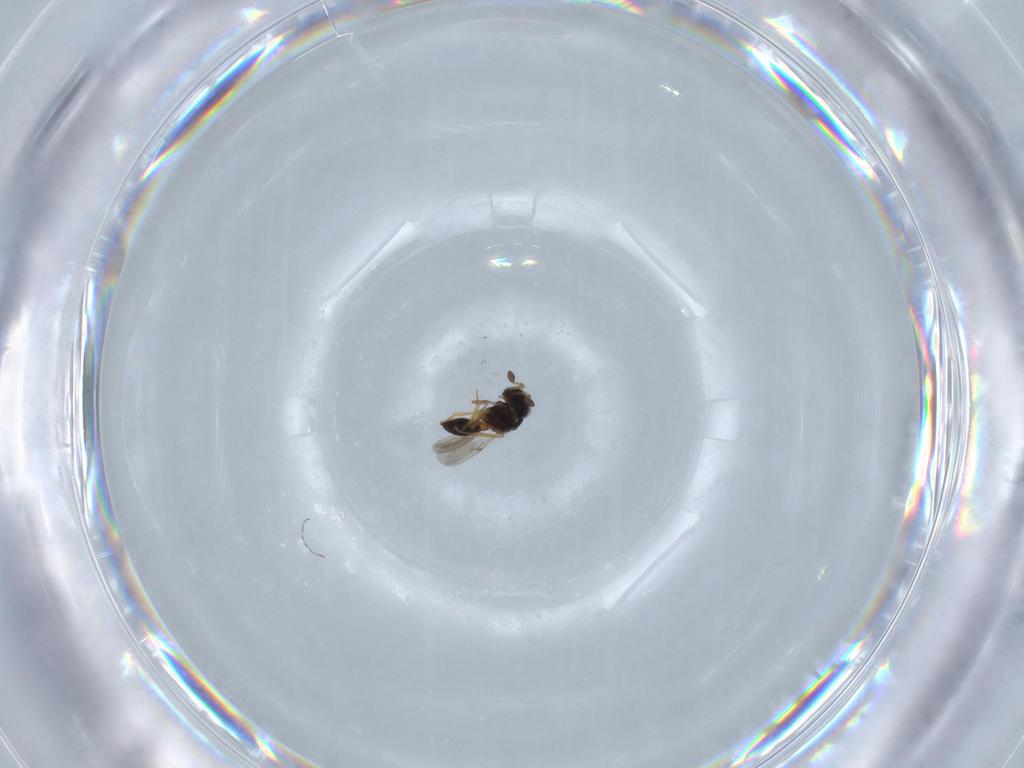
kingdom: Animalia
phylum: Arthropoda
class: Insecta
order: Hymenoptera
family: Scelionidae
